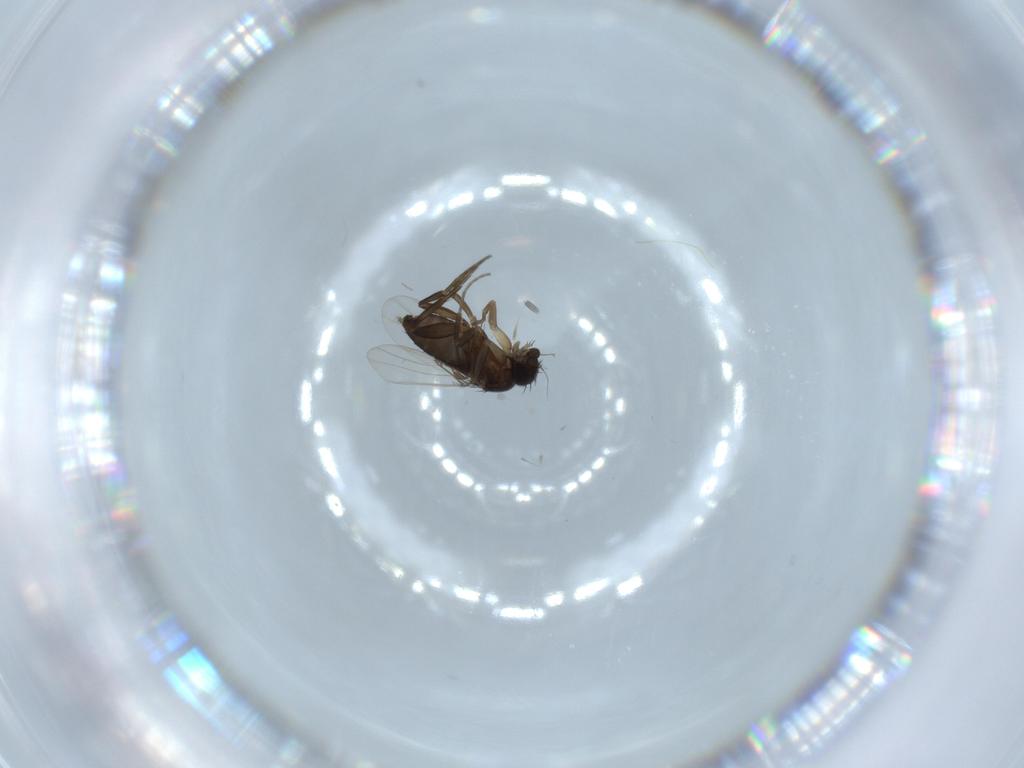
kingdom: Animalia
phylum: Arthropoda
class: Insecta
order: Diptera
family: Phoridae
